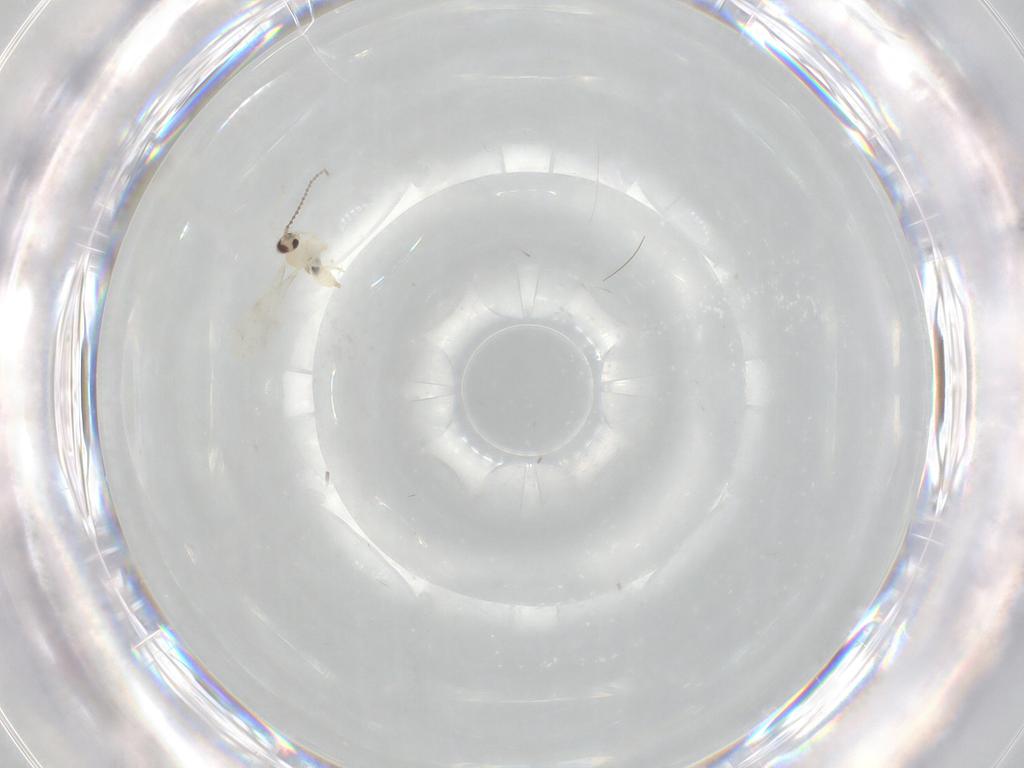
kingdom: Animalia
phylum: Arthropoda
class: Insecta
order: Diptera
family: Cecidomyiidae
